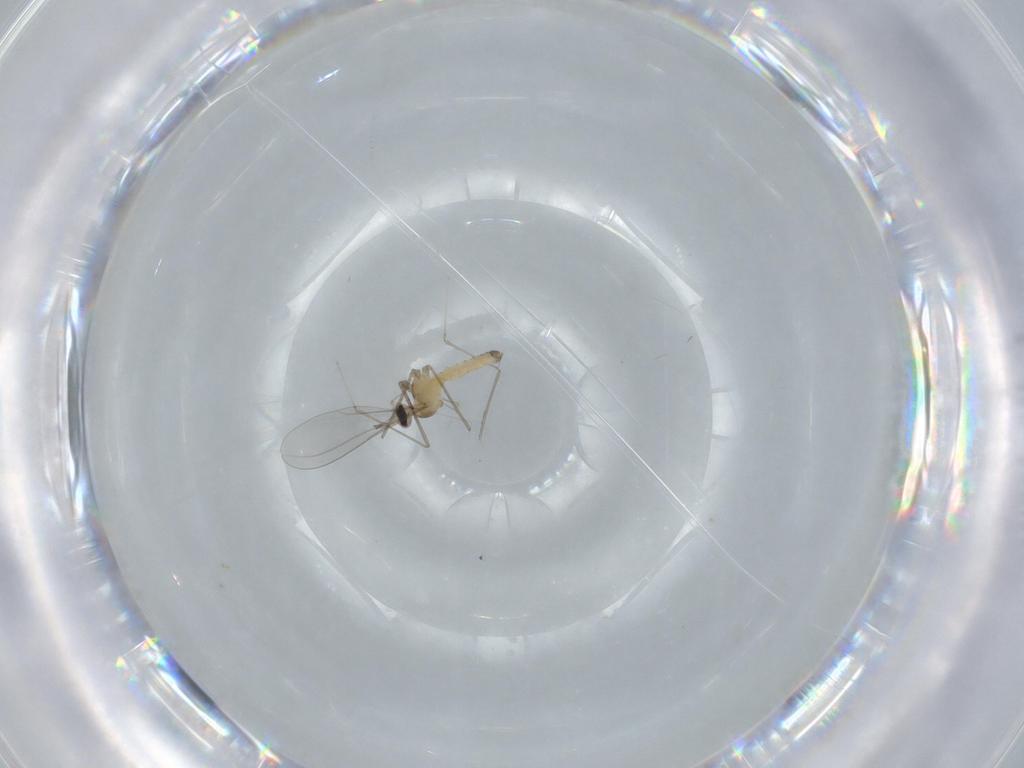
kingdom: Animalia
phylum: Arthropoda
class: Insecta
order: Diptera
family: Cecidomyiidae
